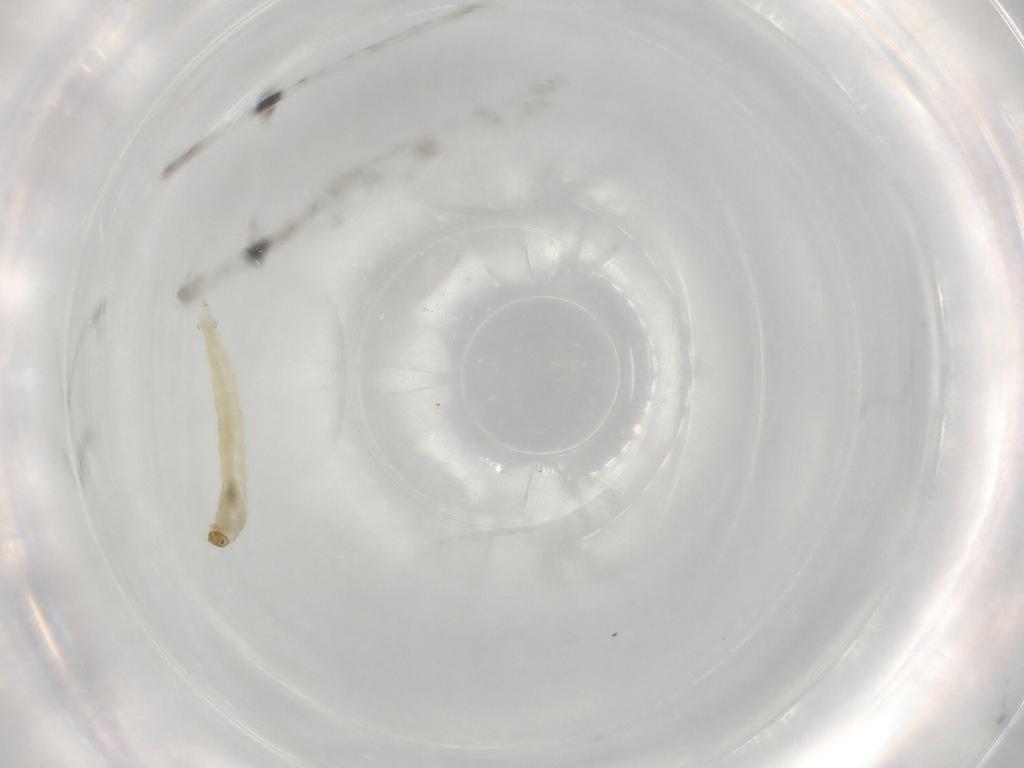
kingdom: Animalia
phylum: Arthropoda
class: Insecta
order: Diptera
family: Chironomidae
